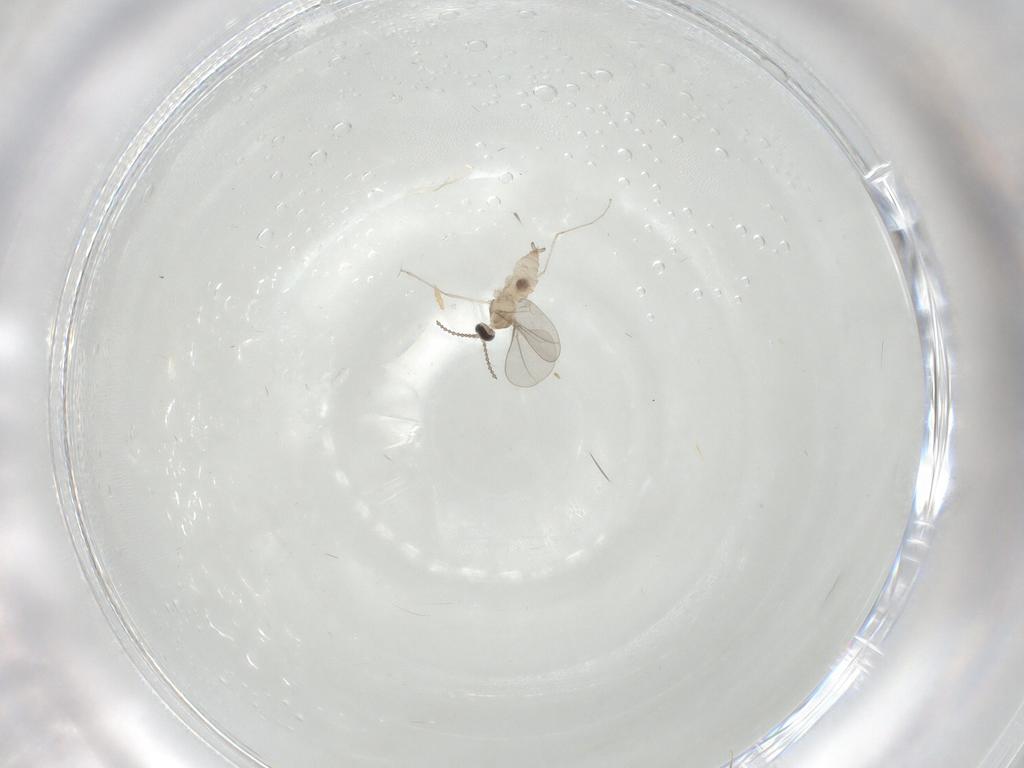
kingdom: Animalia
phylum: Arthropoda
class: Insecta
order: Diptera
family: Cecidomyiidae
